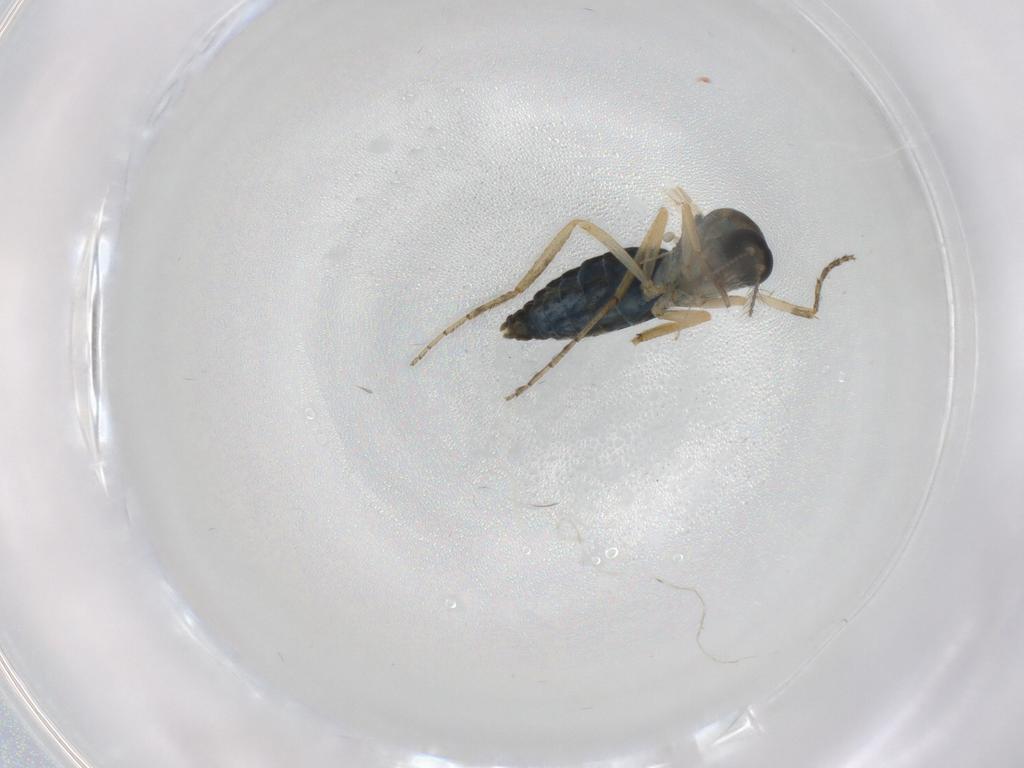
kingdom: Animalia
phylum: Arthropoda
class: Insecta
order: Diptera
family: Ceratopogonidae
